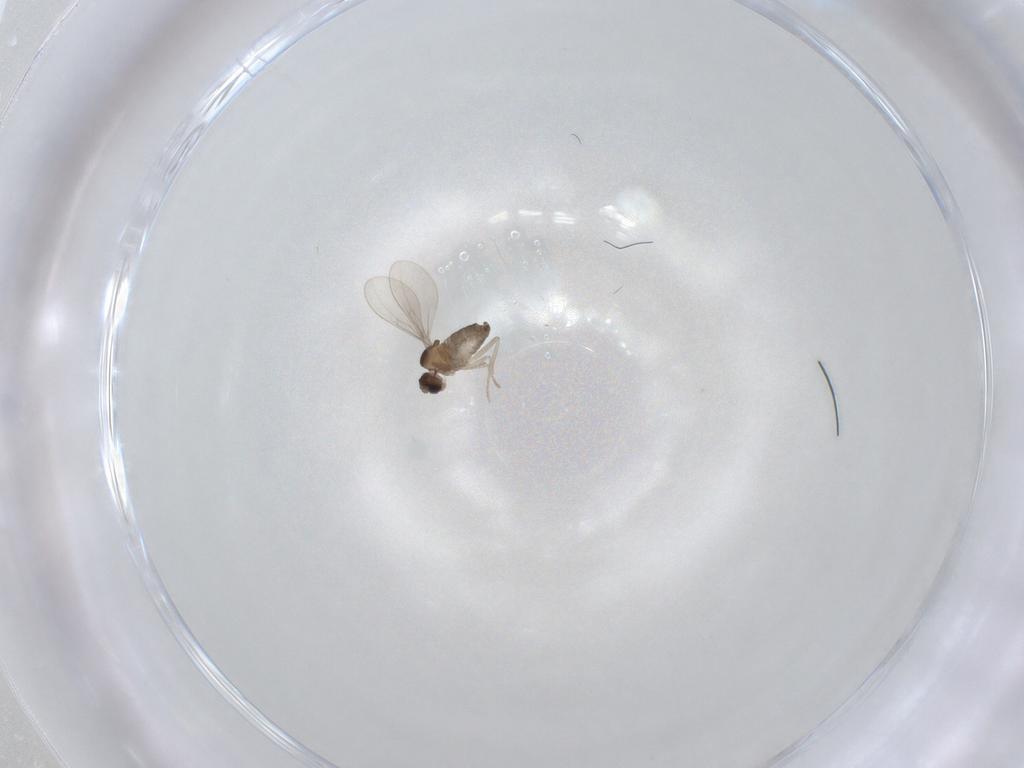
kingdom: Animalia
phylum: Arthropoda
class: Insecta
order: Diptera
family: Cecidomyiidae
